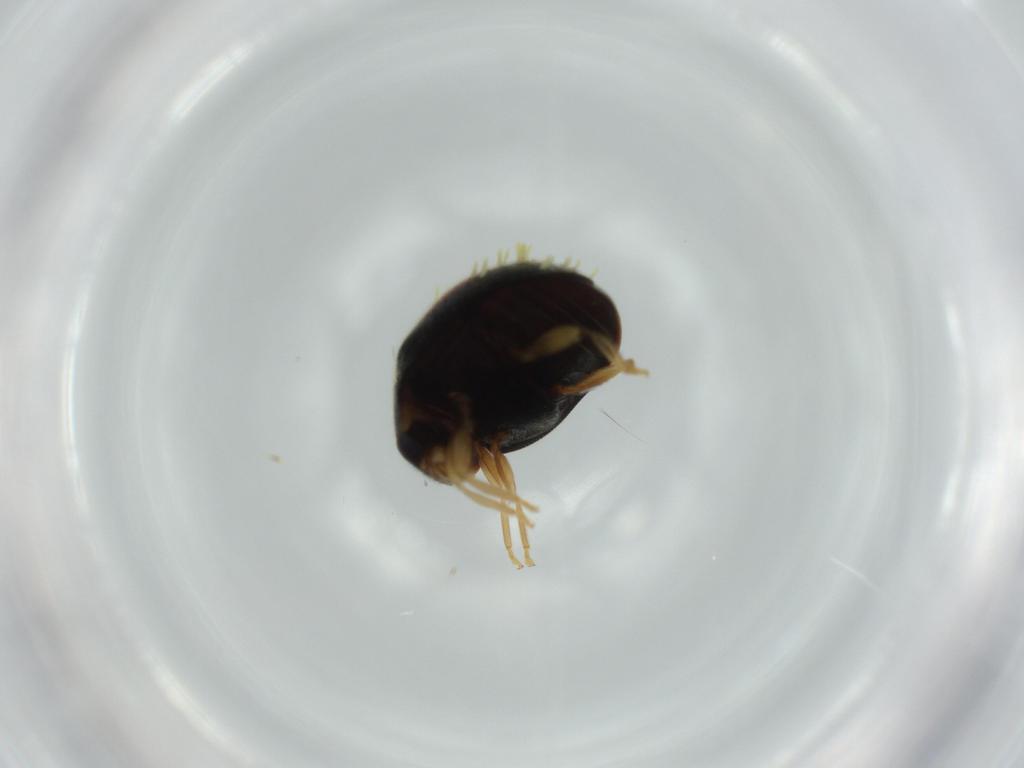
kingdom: Animalia
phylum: Arthropoda
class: Insecta
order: Coleoptera
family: Coccinellidae
